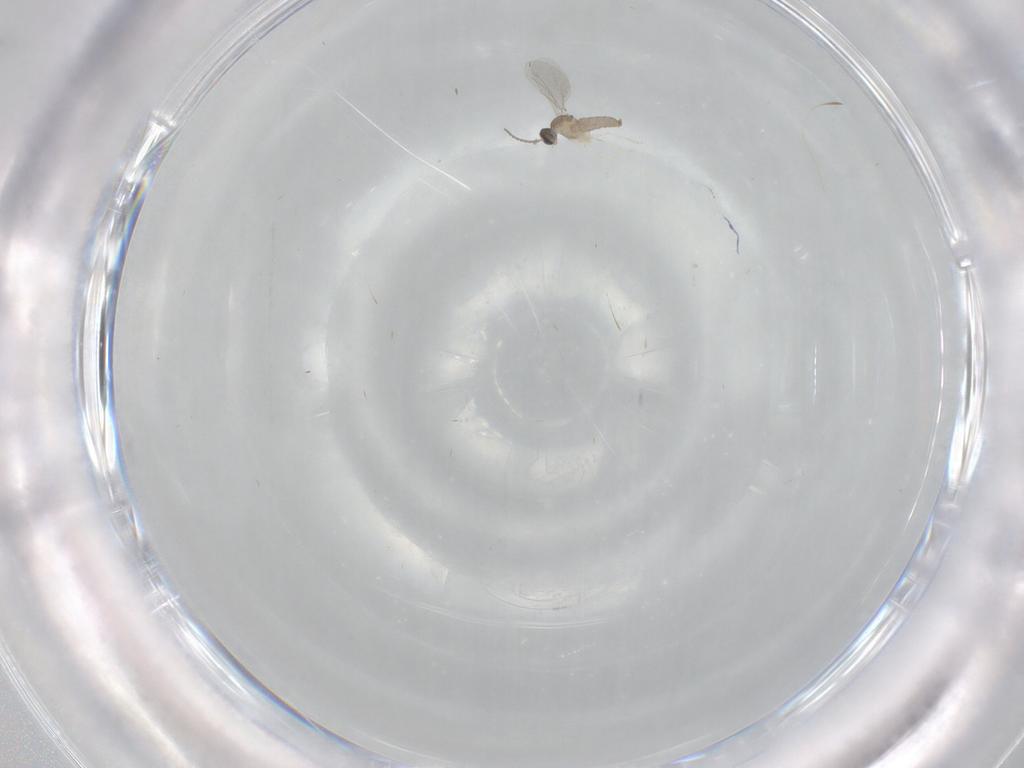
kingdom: Animalia
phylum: Arthropoda
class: Insecta
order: Diptera
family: Cecidomyiidae
